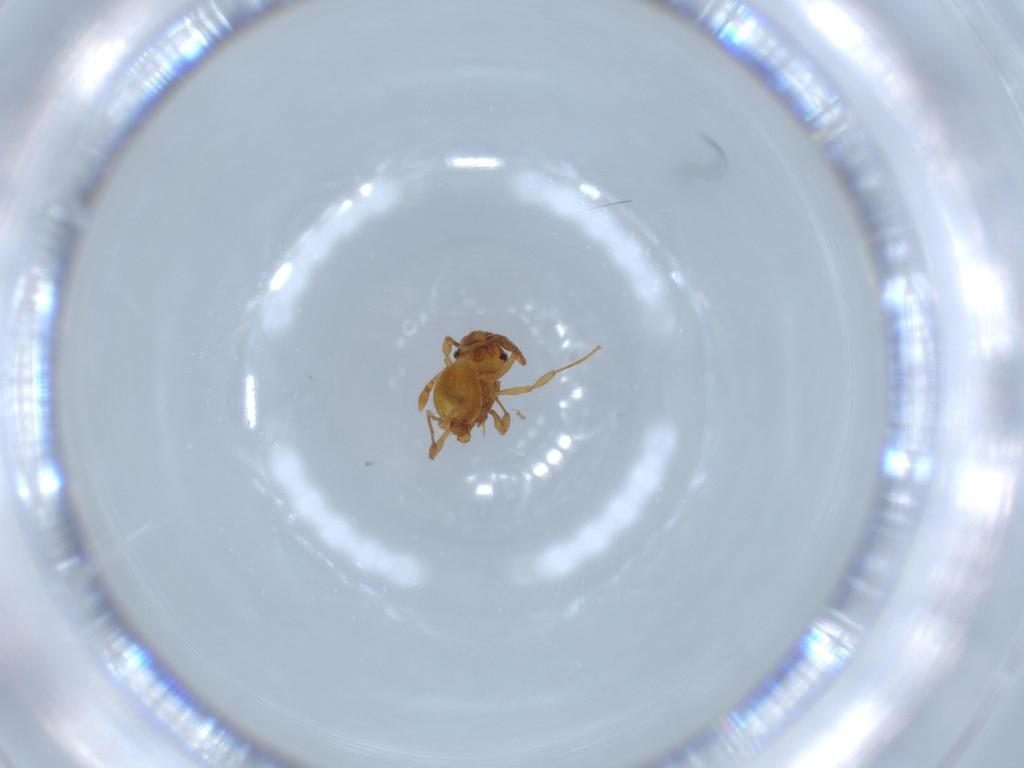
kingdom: Animalia
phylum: Arthropoda
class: Insecta
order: Hymenoptera
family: Formicidae
